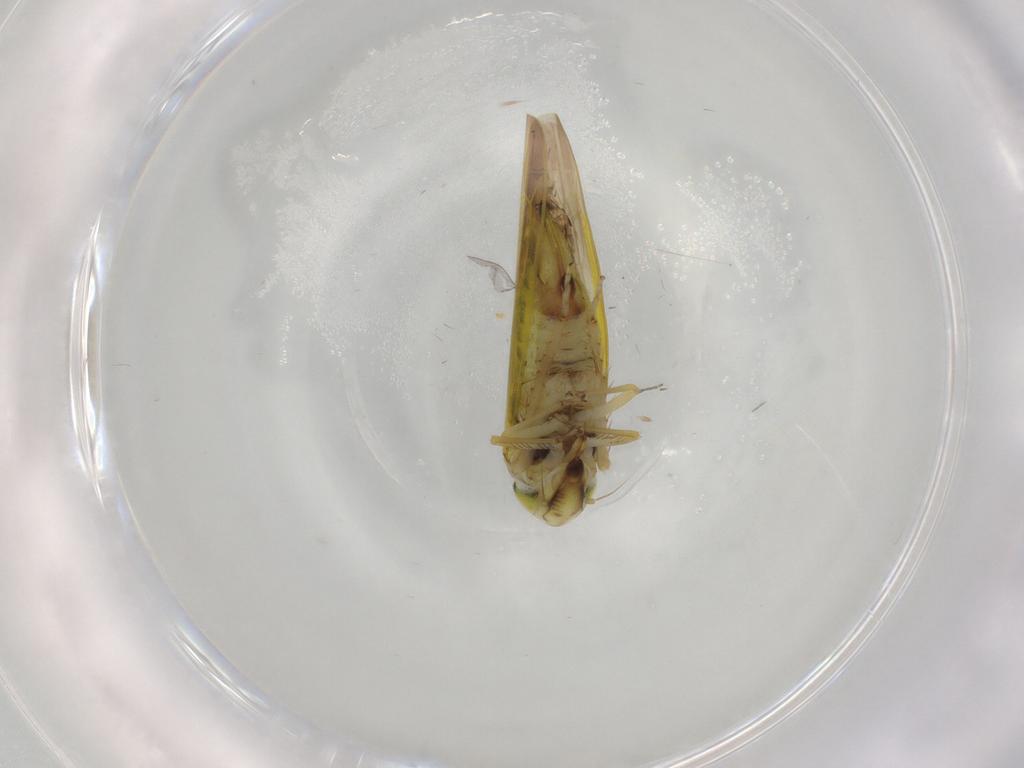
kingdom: Animalia
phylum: Arthropoda
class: Insecta
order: Hemiptera
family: Cicadellidae
